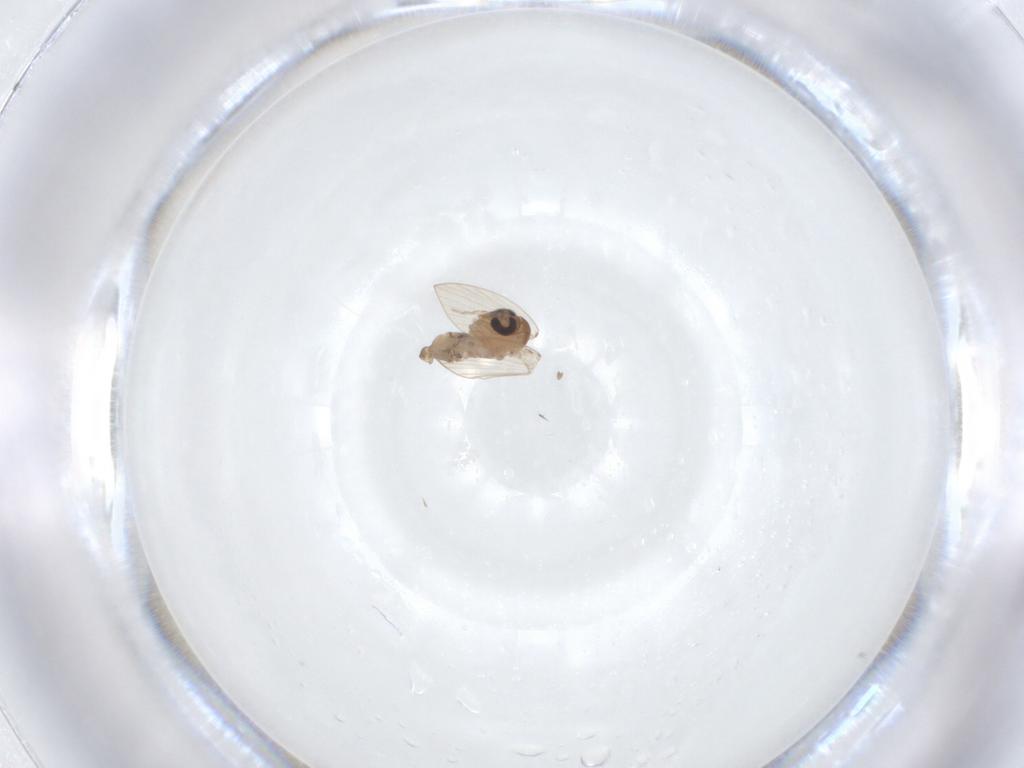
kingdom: Animalia
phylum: Arthropoda
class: Insecta
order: Diptera
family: Psychodidae
